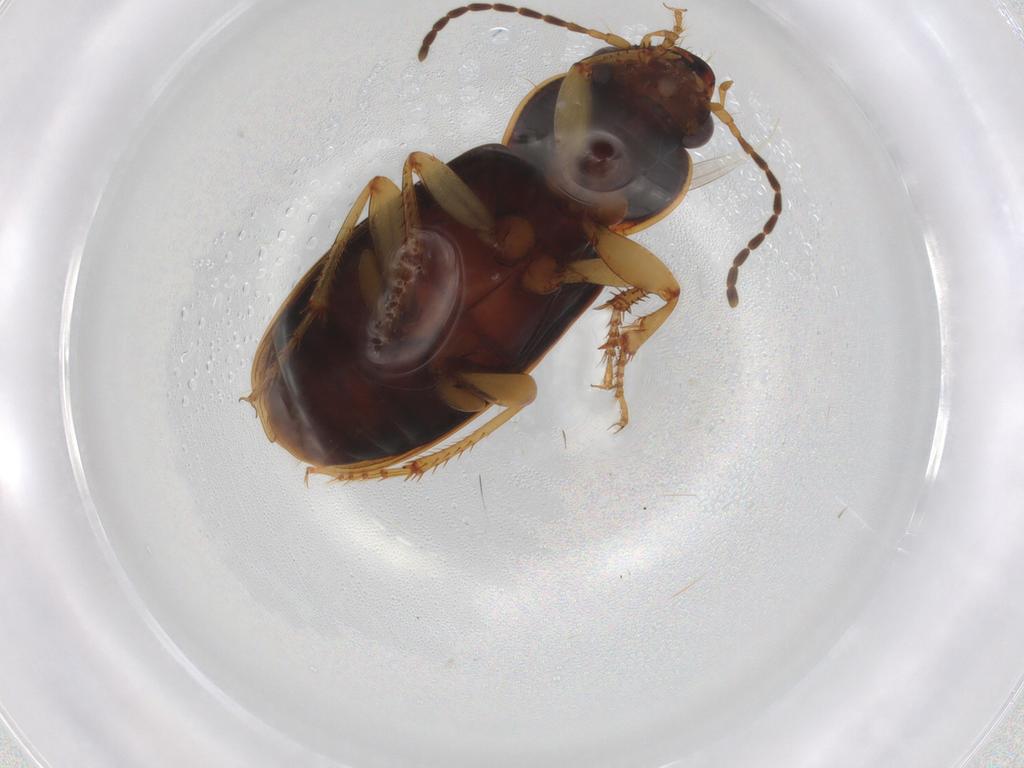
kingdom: Animalia
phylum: Arthropoda
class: Insecta
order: Coleoptera
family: Carabidae
